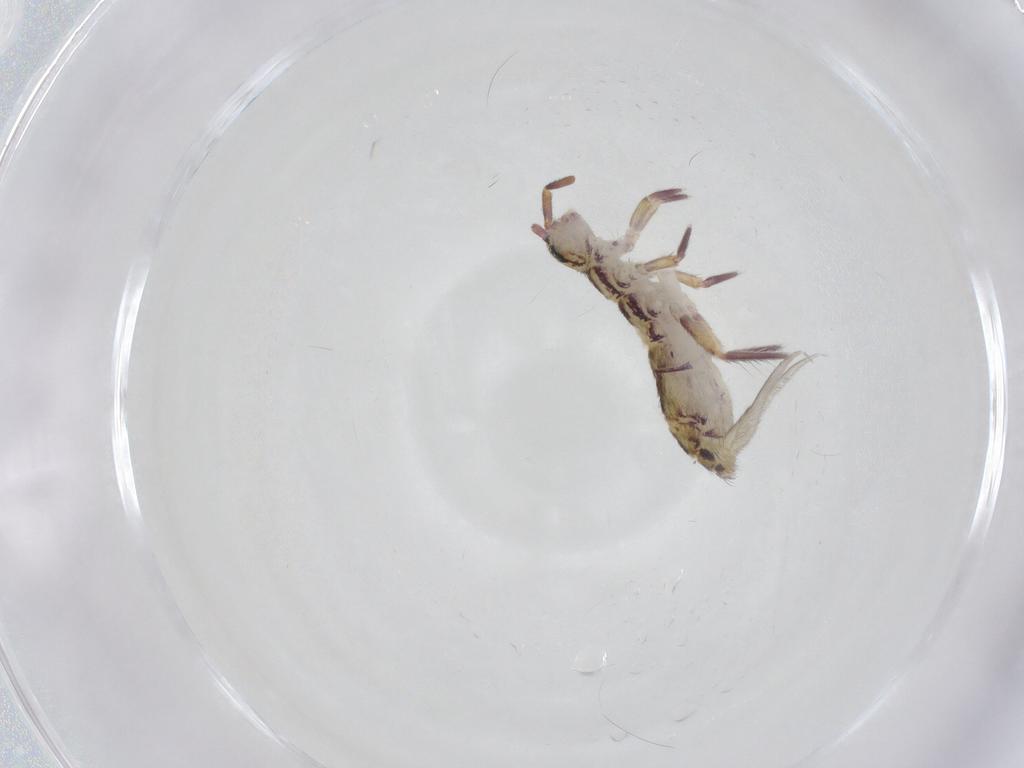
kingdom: Animalia
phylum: Arthropoda
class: Collembola
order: Entomobryomorpha
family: Isotomidae
